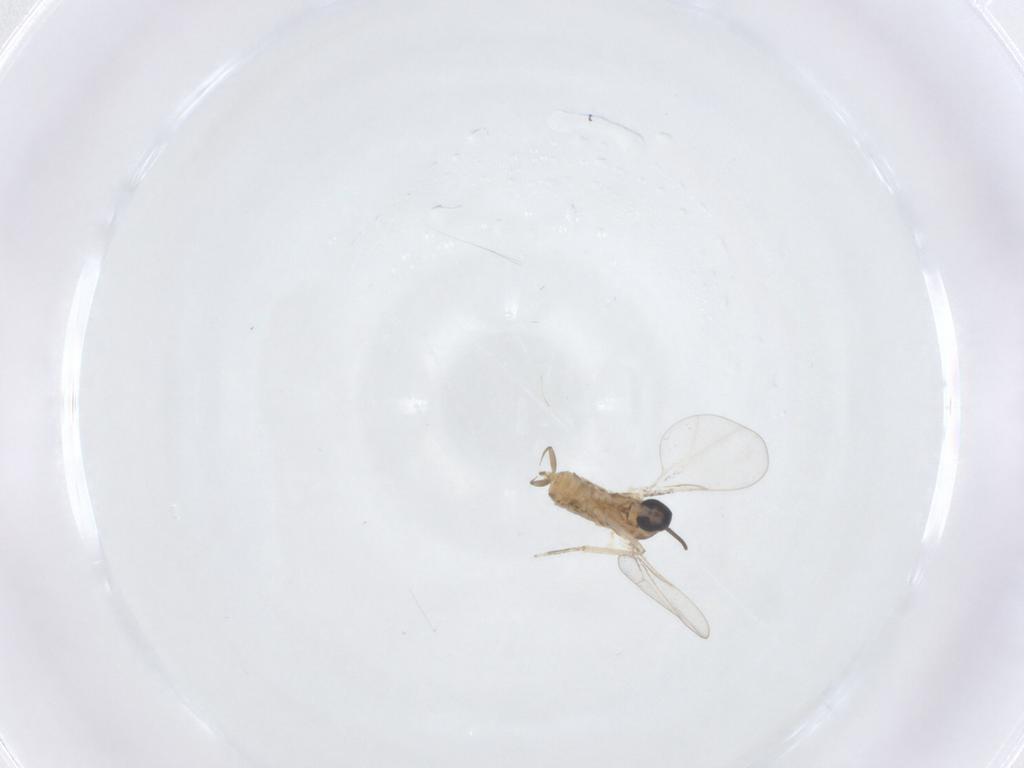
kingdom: Animalia
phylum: Arthropoda
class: Insecta
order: Diptera
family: Cecidomyiidae
